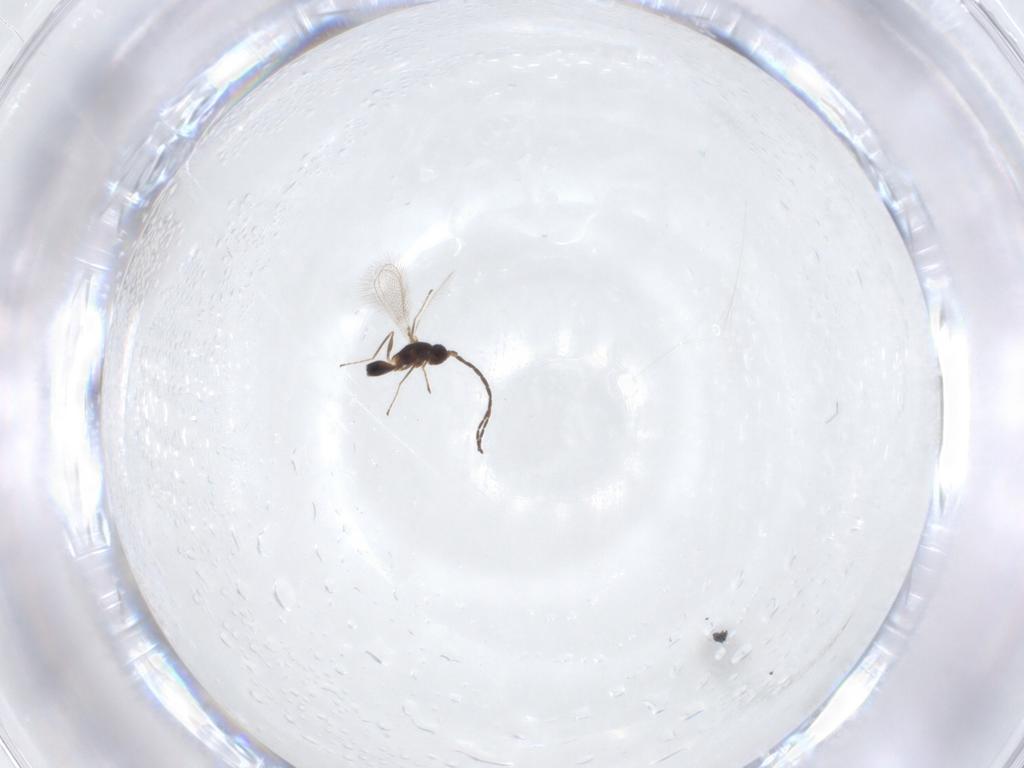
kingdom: Animalia
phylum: Arthropoda
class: Insecta
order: Hymenoptera
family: Mymaridae
